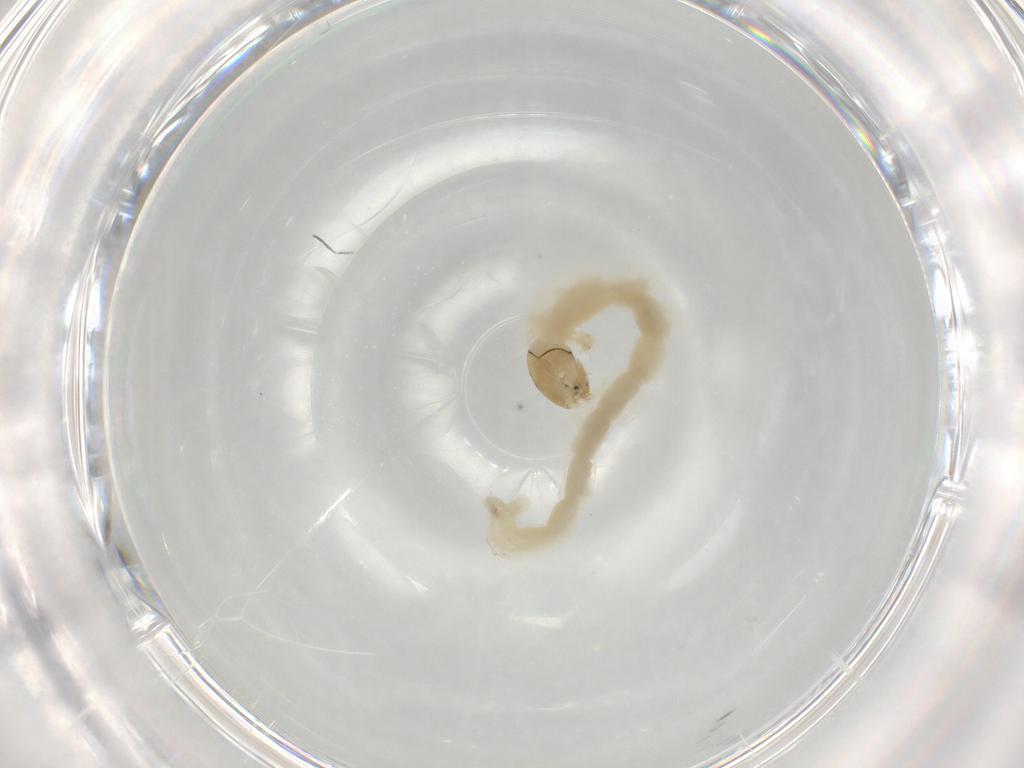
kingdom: Animalia
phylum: Arthropoda
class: Insecta
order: Diptera
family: Chironomidae
